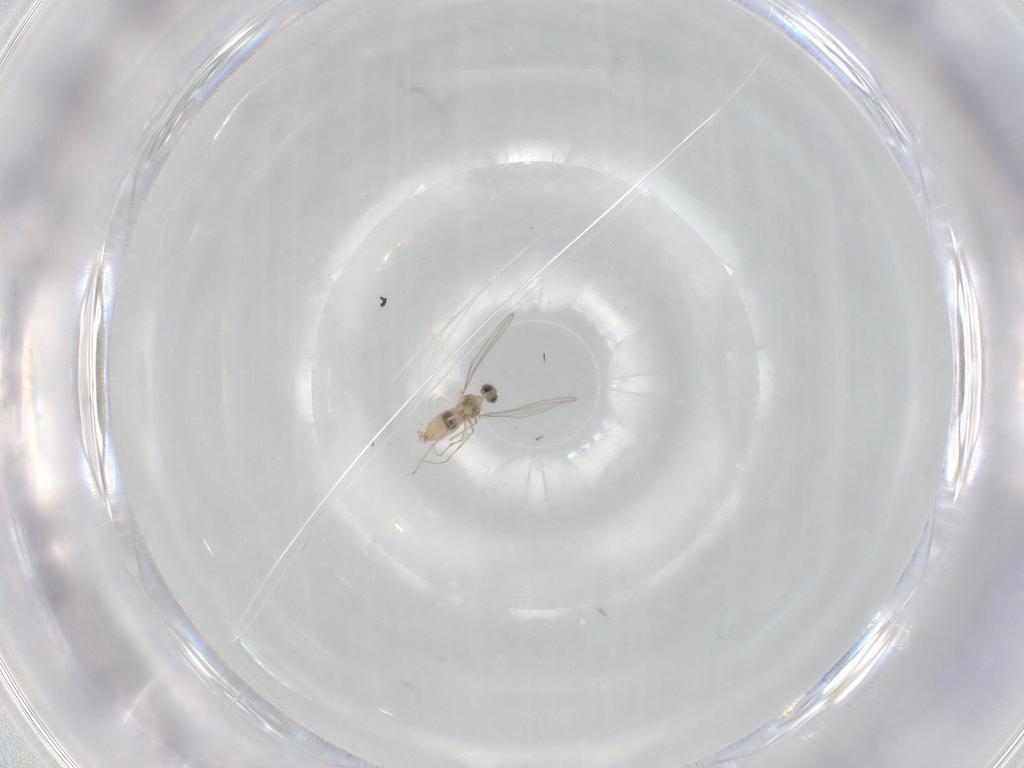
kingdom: Animalia
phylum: Arthropoda
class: Insecta
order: Diptera
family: Cecidomyiidae
